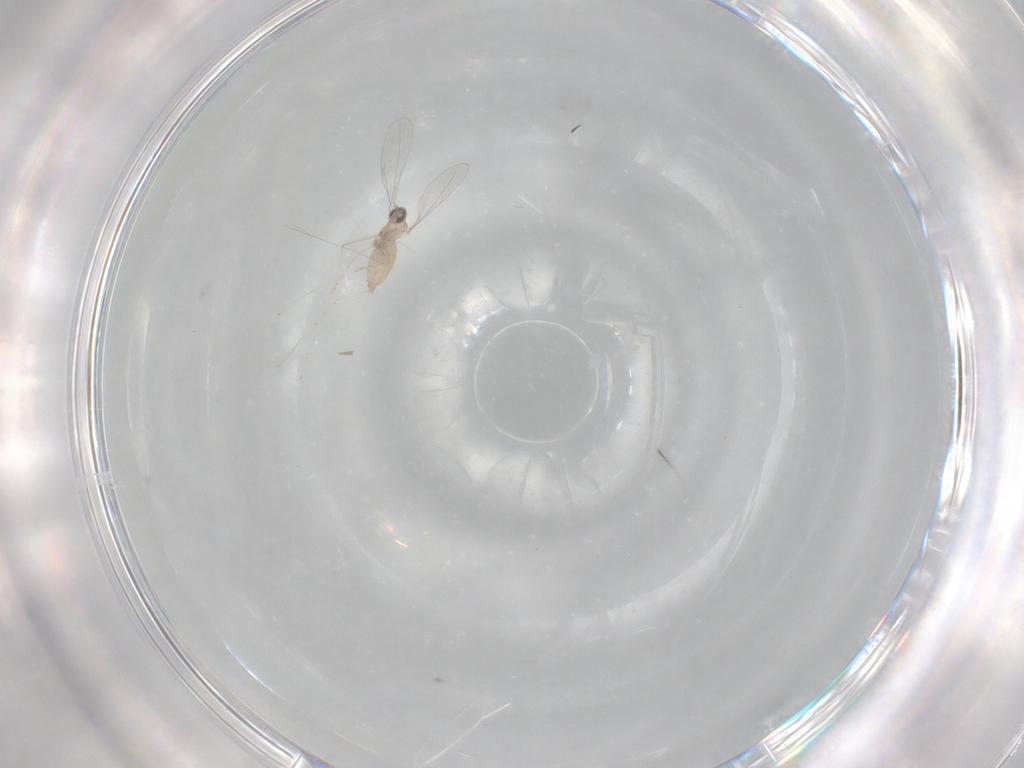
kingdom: Animalia
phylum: Arthropoda
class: Insecta
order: Diptera
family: Cecidomyiidae
